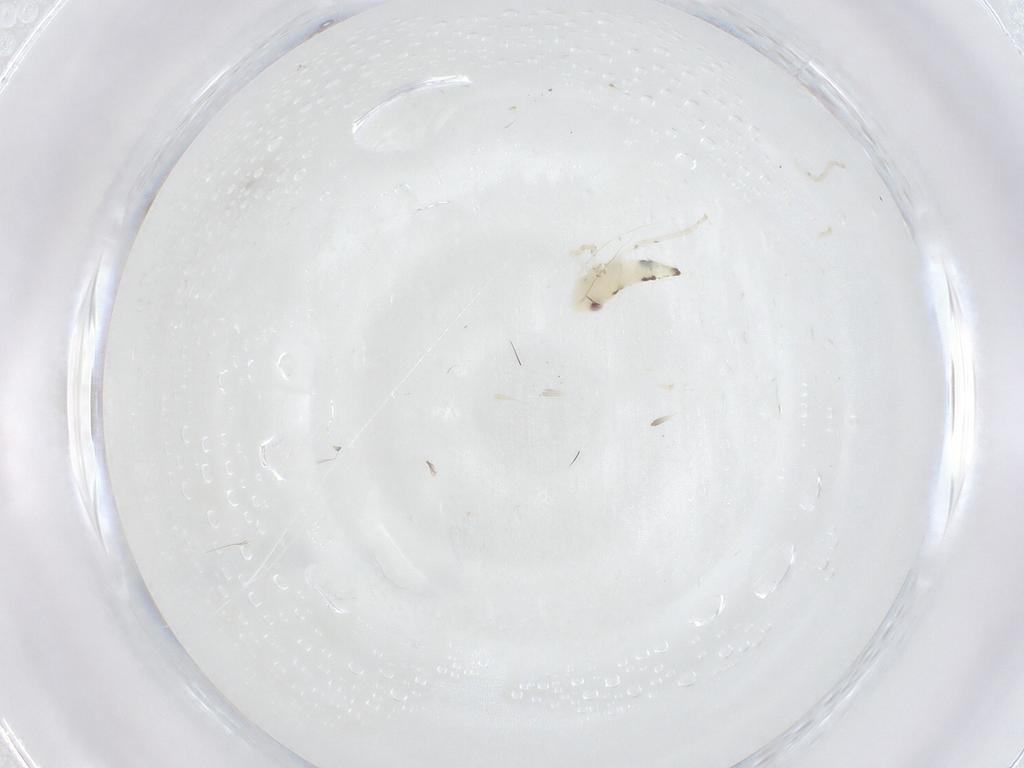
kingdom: Animalia
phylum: Arthropoda
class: Insecta
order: Hemiptera
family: Cicadellidae
